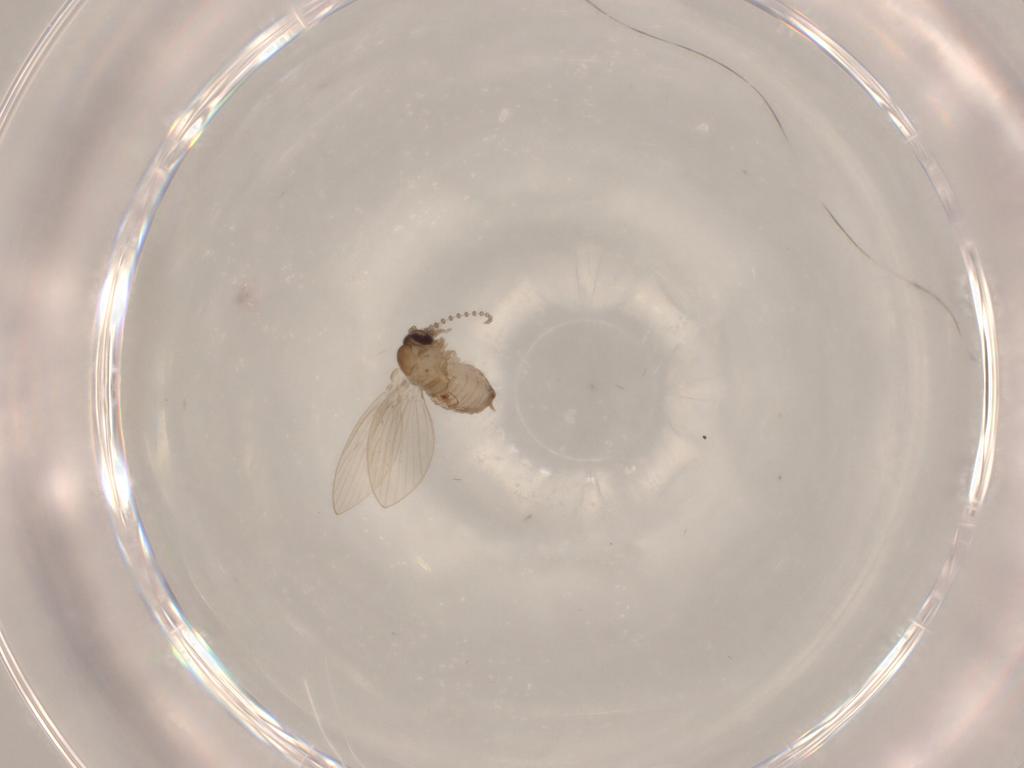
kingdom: Animalia
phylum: Arthropoda
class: Insecta
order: Diptera
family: Psychodidae
